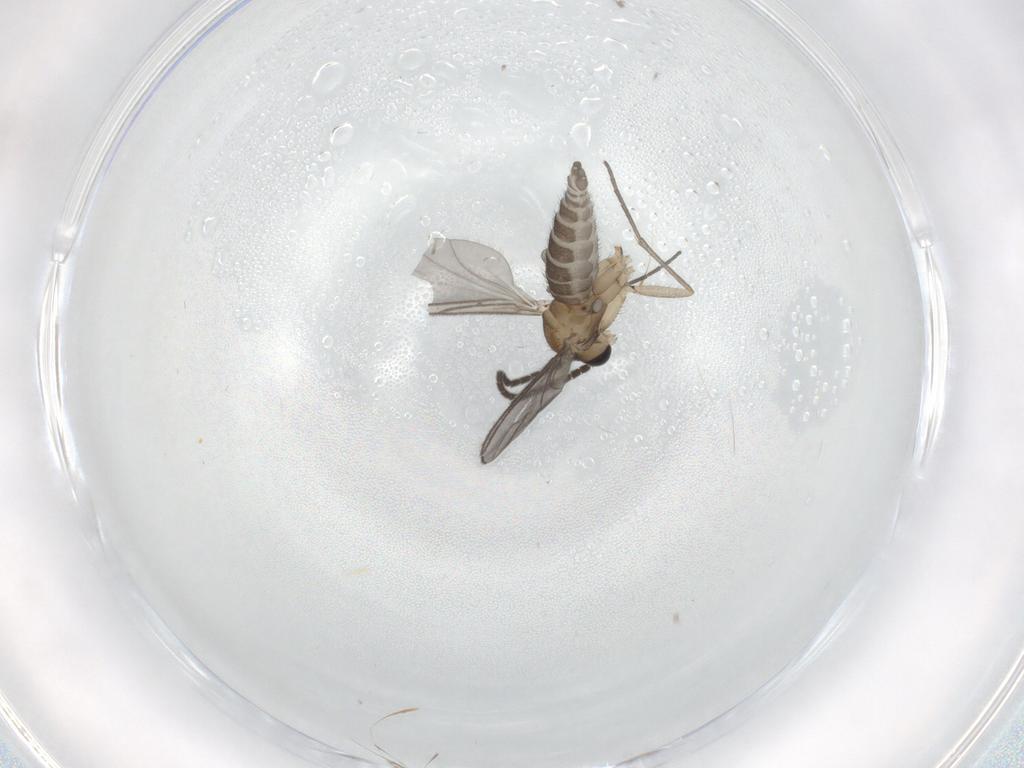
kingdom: Animalia
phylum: Arthropoda
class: Insecta
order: Diptera
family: Sciaridae
